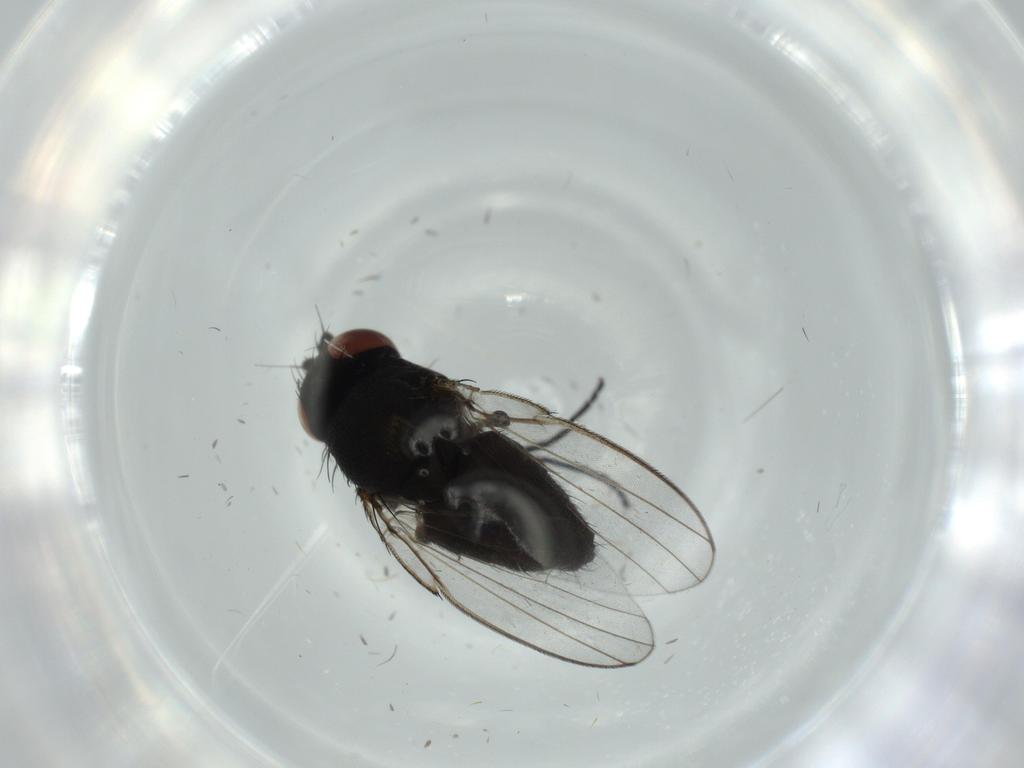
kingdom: Animalia
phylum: Arthropoda
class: Insecta
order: Diptera
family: Milichiidae
